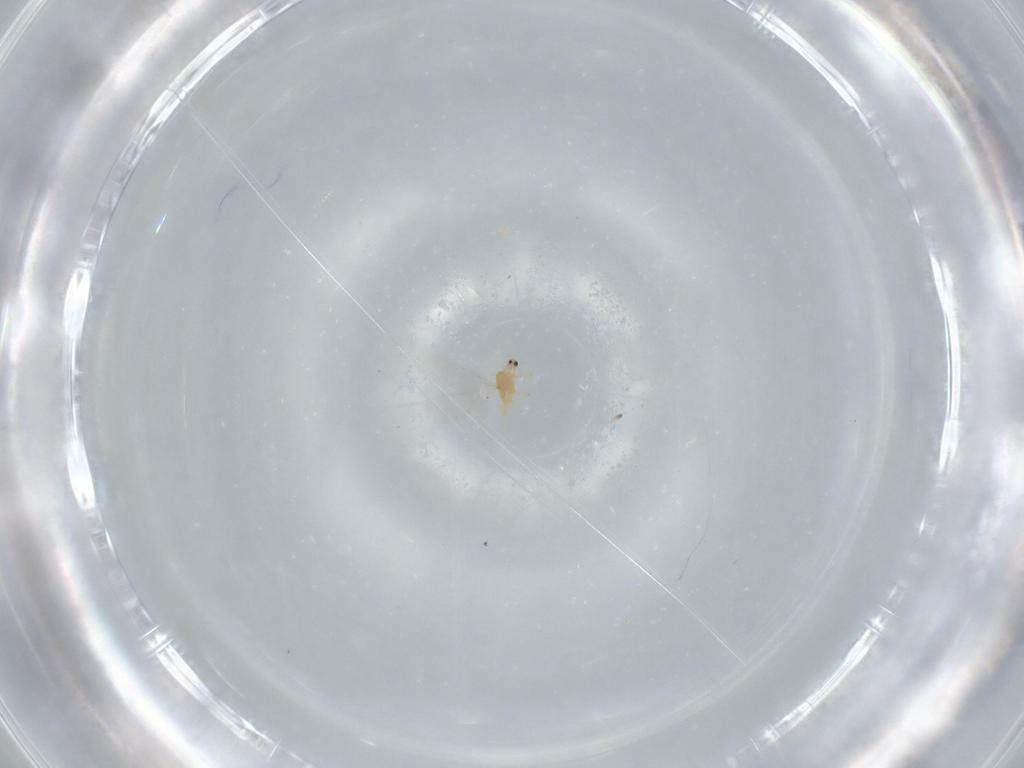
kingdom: Animalia
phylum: Arthropoda
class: Insecta
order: Hemiptera
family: Diaspididae
